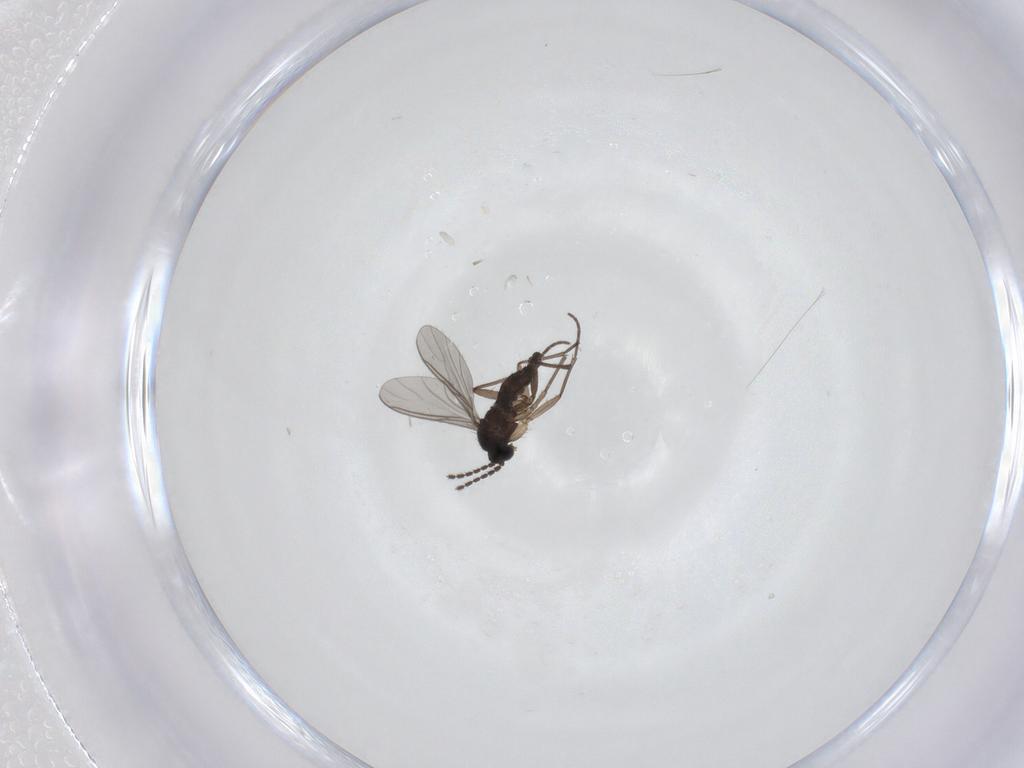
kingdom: Animalia
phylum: Arthropoda
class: Insecta
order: Diptera
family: Sciaridae
